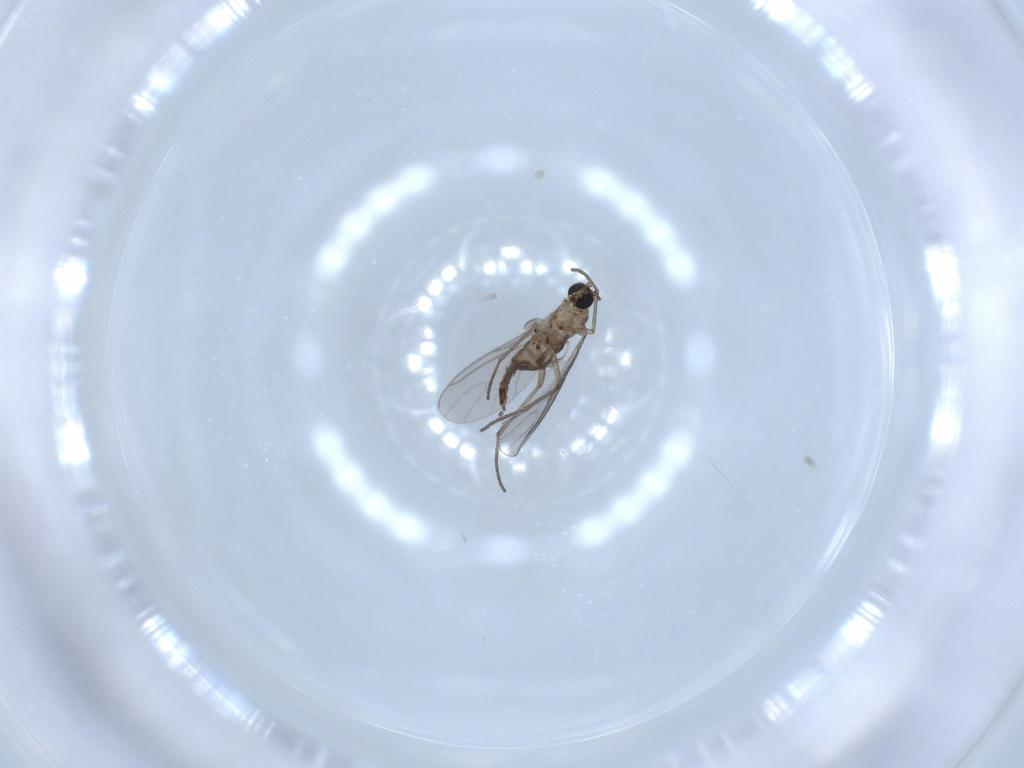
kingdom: Animalia
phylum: Arthropoda
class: Insecta
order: Diptera
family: Sciaridae
